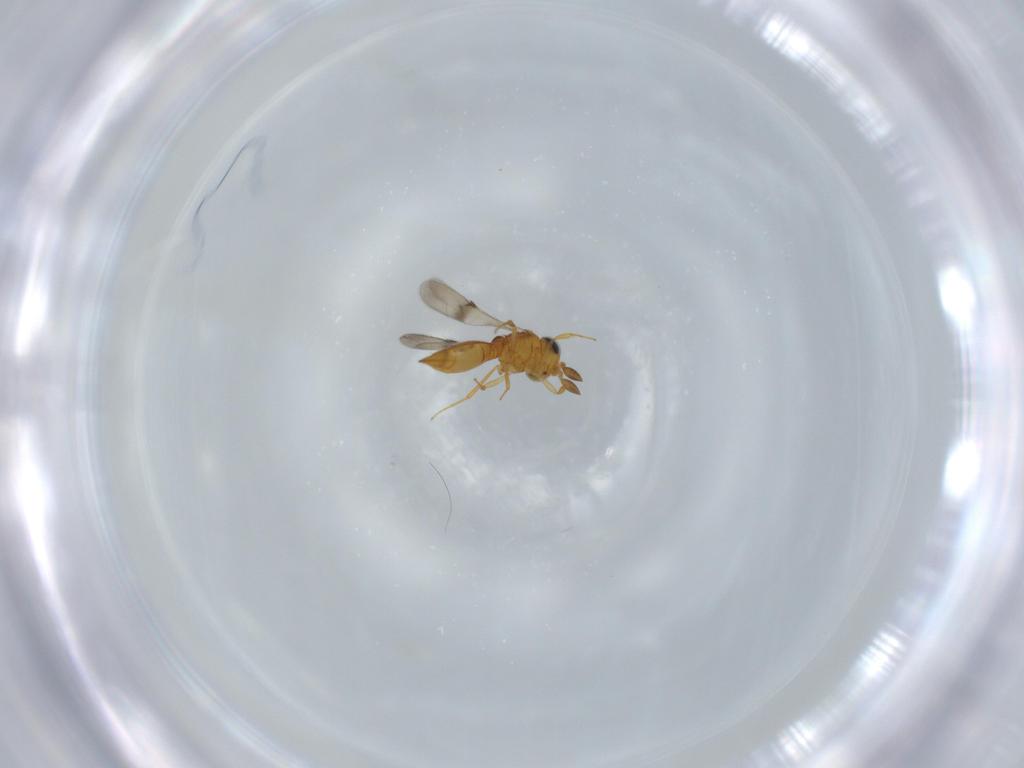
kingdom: Animalia
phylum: Arthropoda
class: Insecta
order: Hymenoptera
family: Scelionidae
